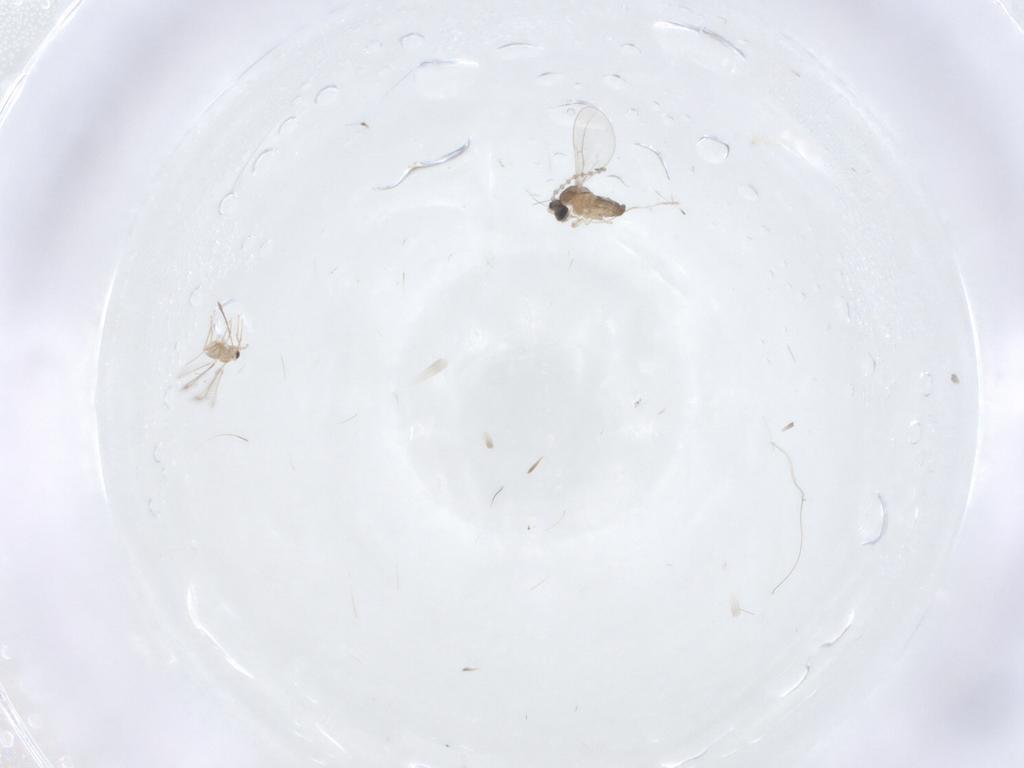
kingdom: Animalia
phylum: Arthropoda
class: Insecta
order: Diptera
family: Cecidomyiidae
